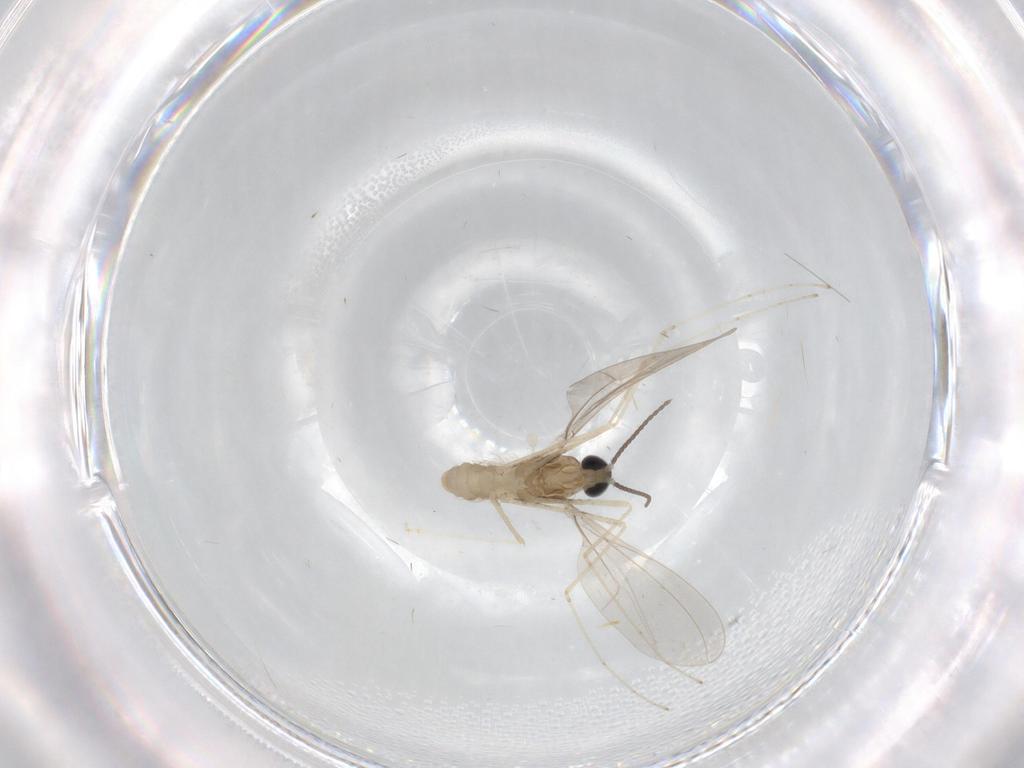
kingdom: Animalia
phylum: Arthropoda
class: Insecta
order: Diptera
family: Cecidomyiidae
